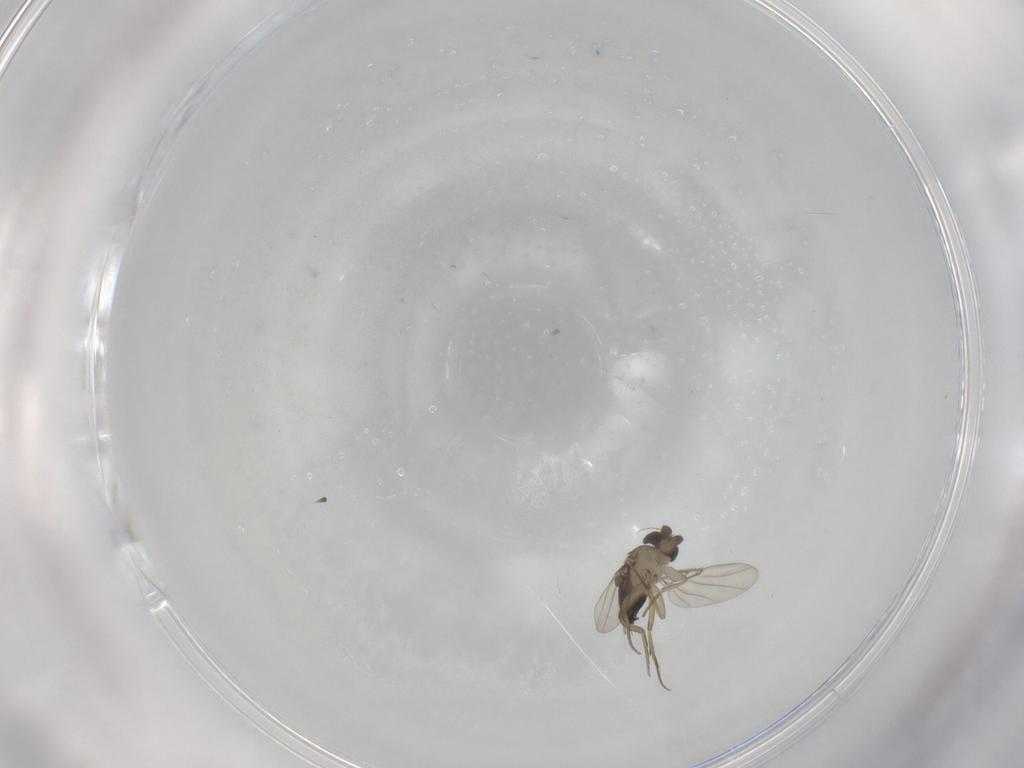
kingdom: Animalia
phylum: Arthropoda
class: Insecta
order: Diptera
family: Phoridae
